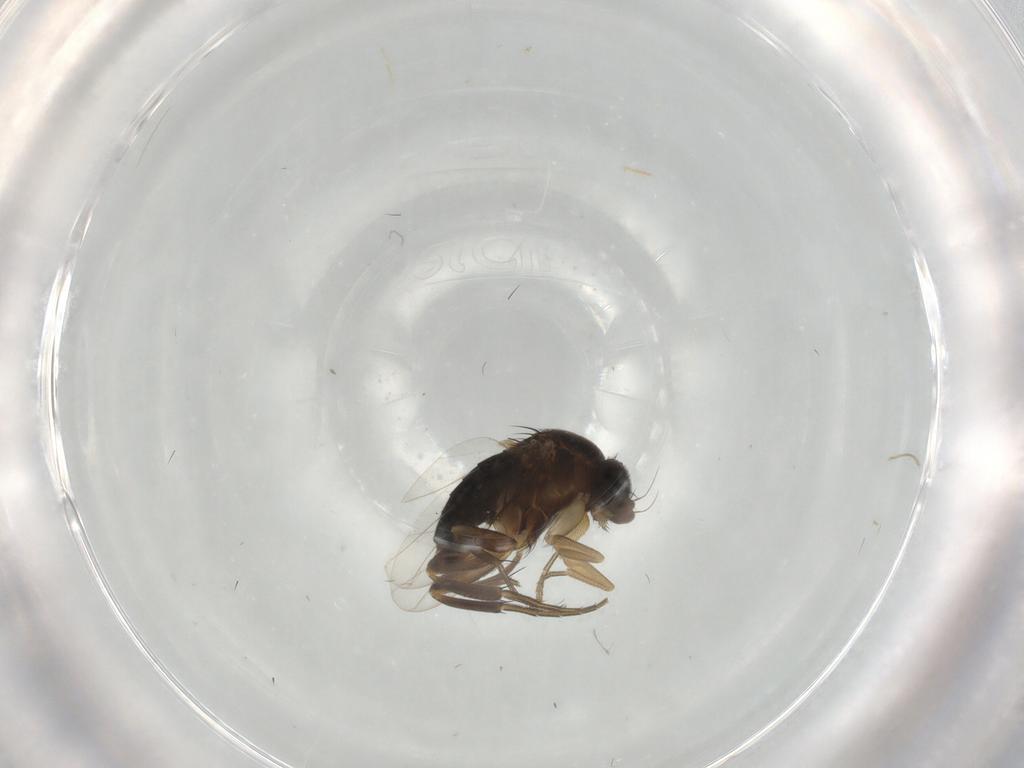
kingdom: Animalia
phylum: Arthropoda
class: Insecta
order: Diptera
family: Phoridae
